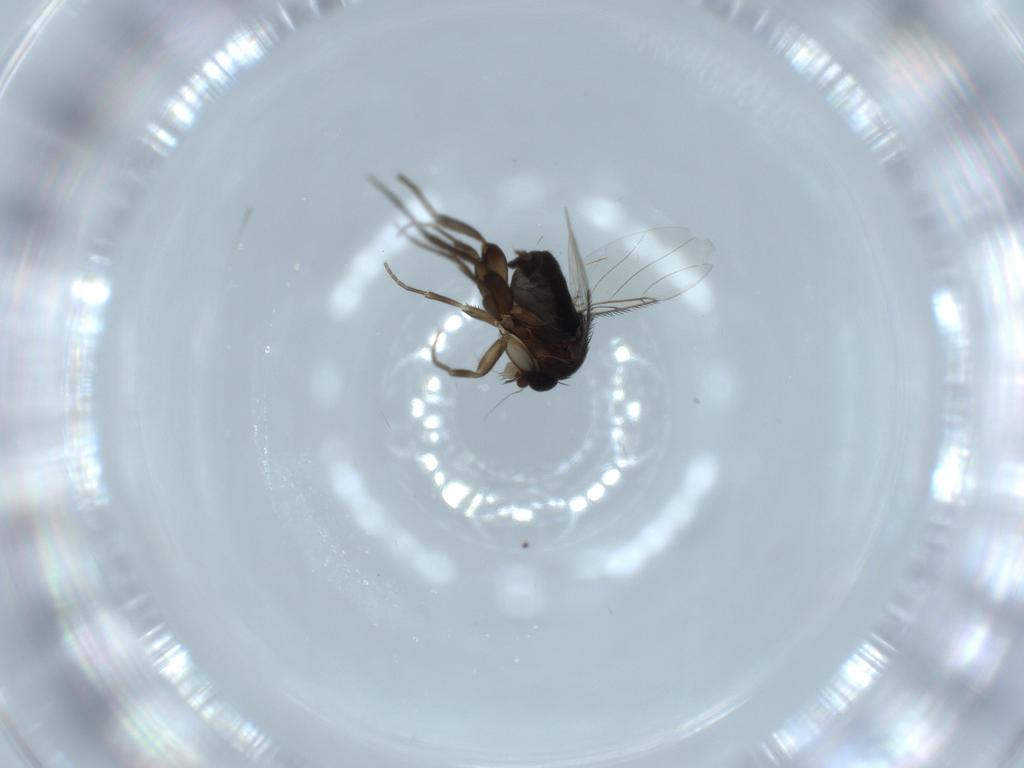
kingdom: Animalia
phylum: Arthropoda
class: Insecta
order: Diptera
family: Phoridae
